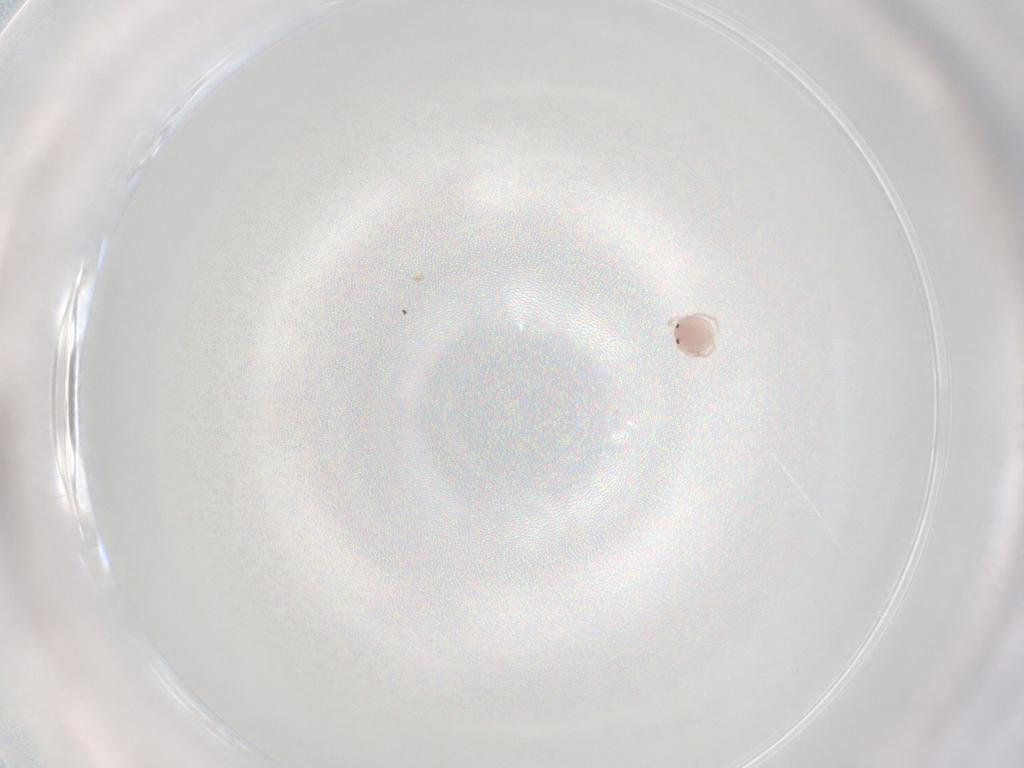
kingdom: Animalia
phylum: Arthropoda
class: Arachnida
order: Trombidiformes
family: Lebertiidae
